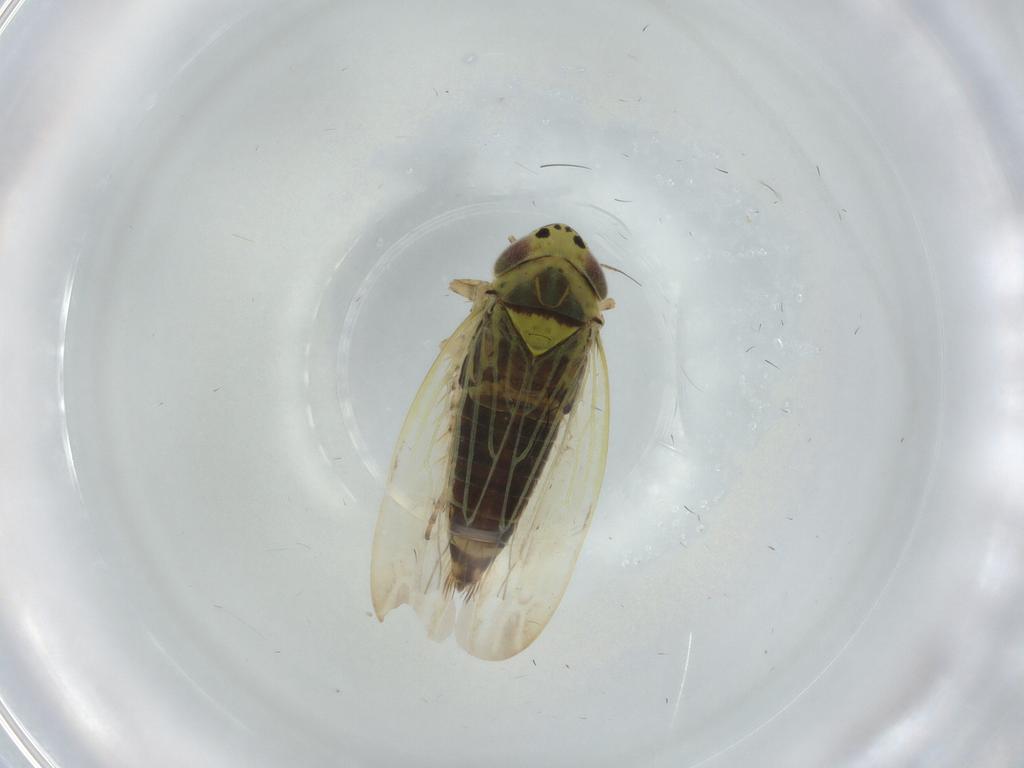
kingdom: Animalia
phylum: Arthropoda
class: Insecta
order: Hemiptera
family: Cicadellidae
